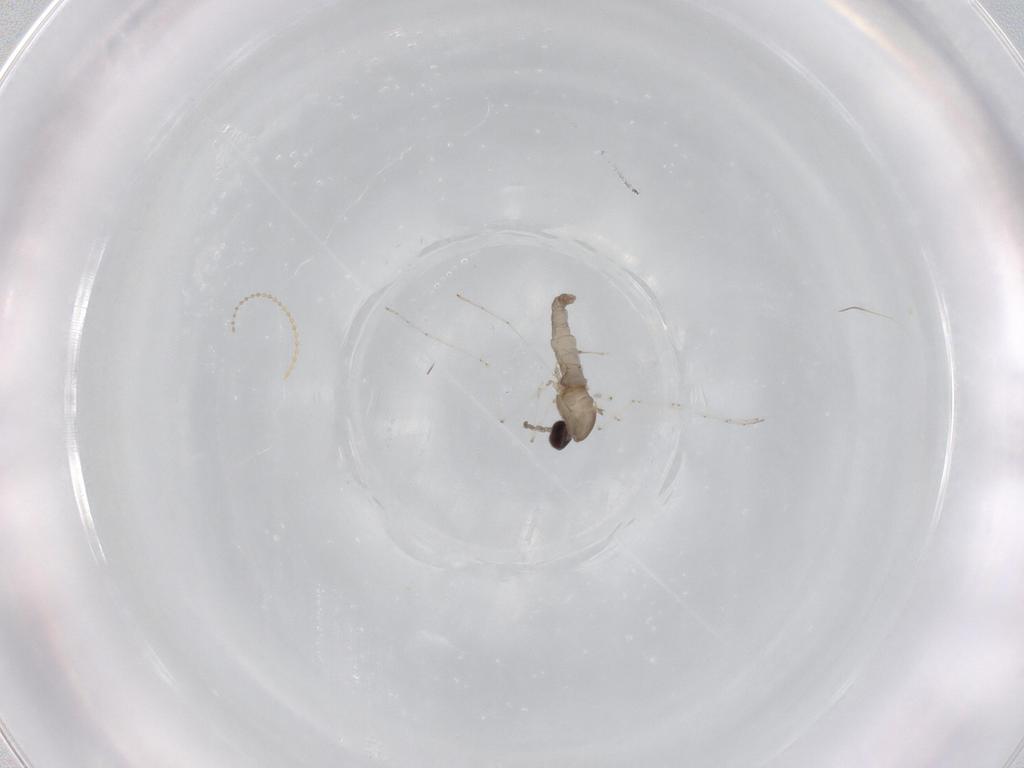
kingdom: Animalia
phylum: Arthropoda
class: Insecta
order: Diptera
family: Cecidomyiidae
